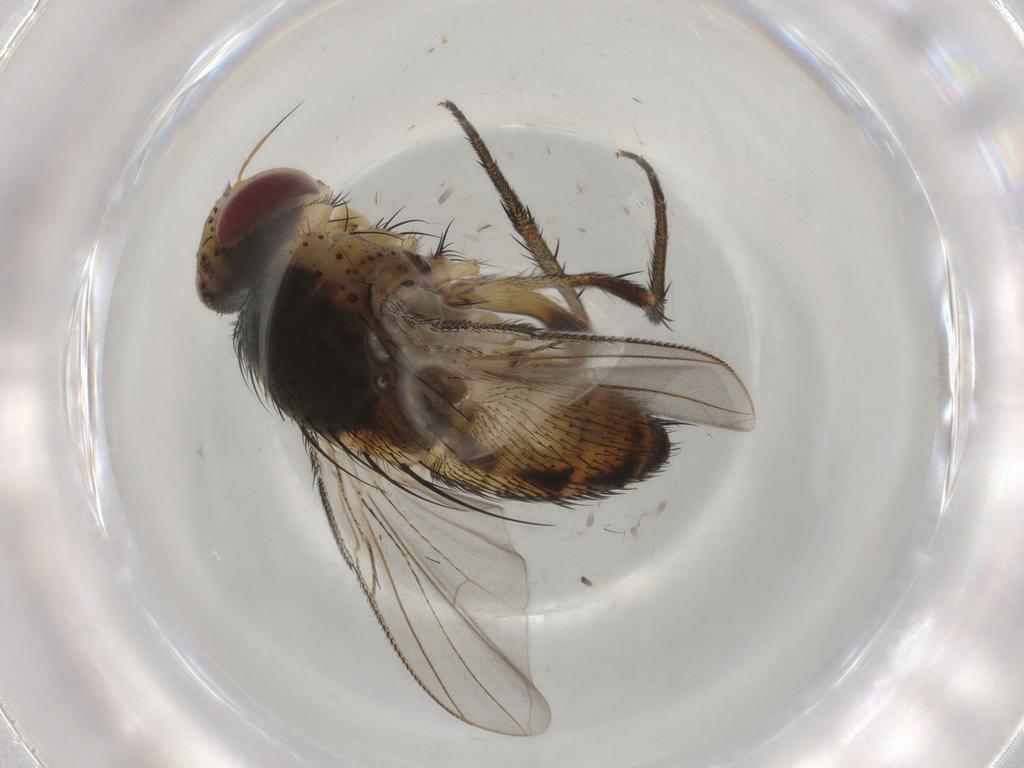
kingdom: Animalia
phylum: Arthropoda
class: Insecta
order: Diptera
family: Tachinidae
